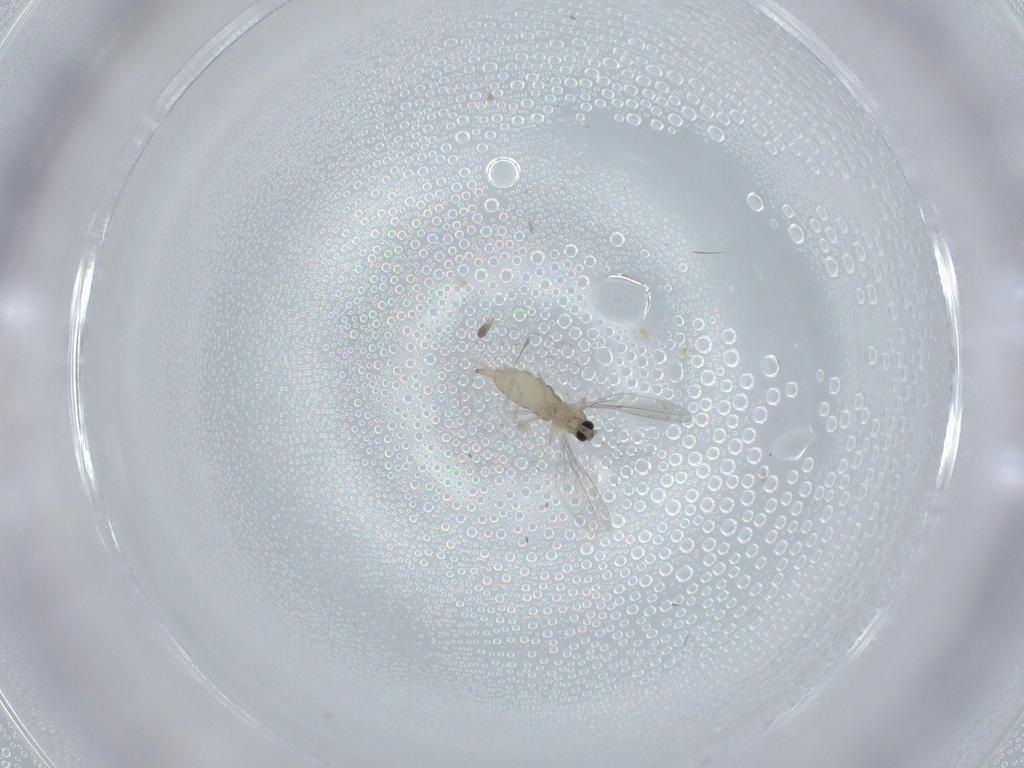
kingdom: Animalia
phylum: Arthropoda
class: Insecta
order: Diptera
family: Cecidomyiidae
